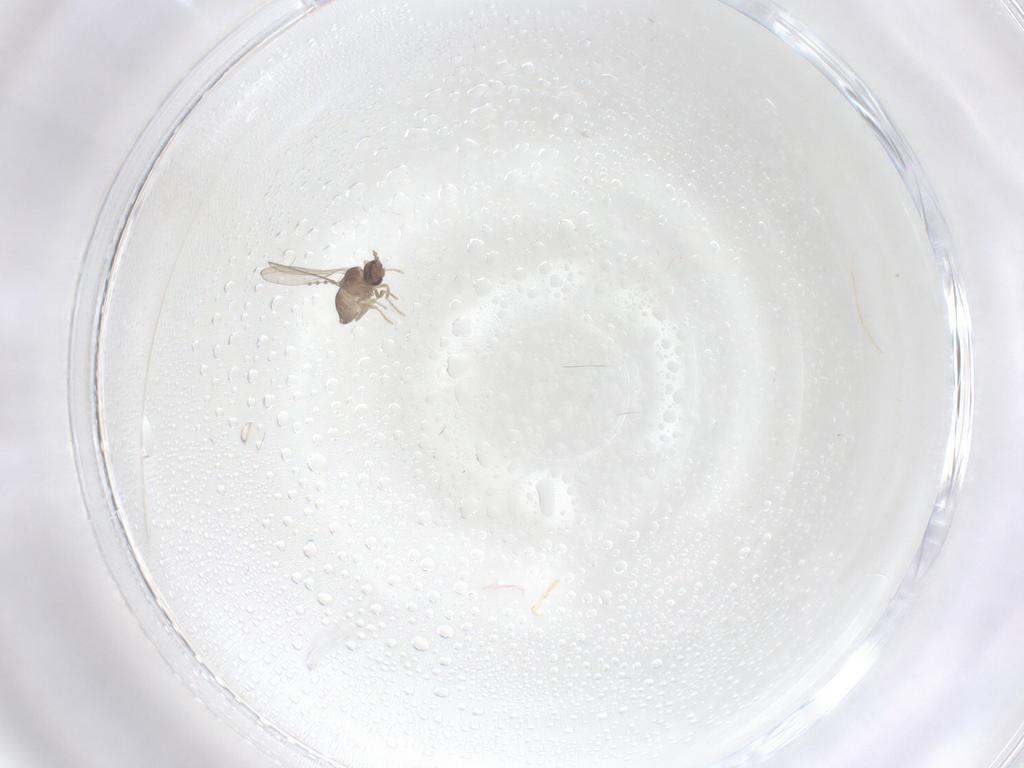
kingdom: Animalia
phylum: Arthropoda
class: Insecta
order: Diptera
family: Cecidomyiidae
